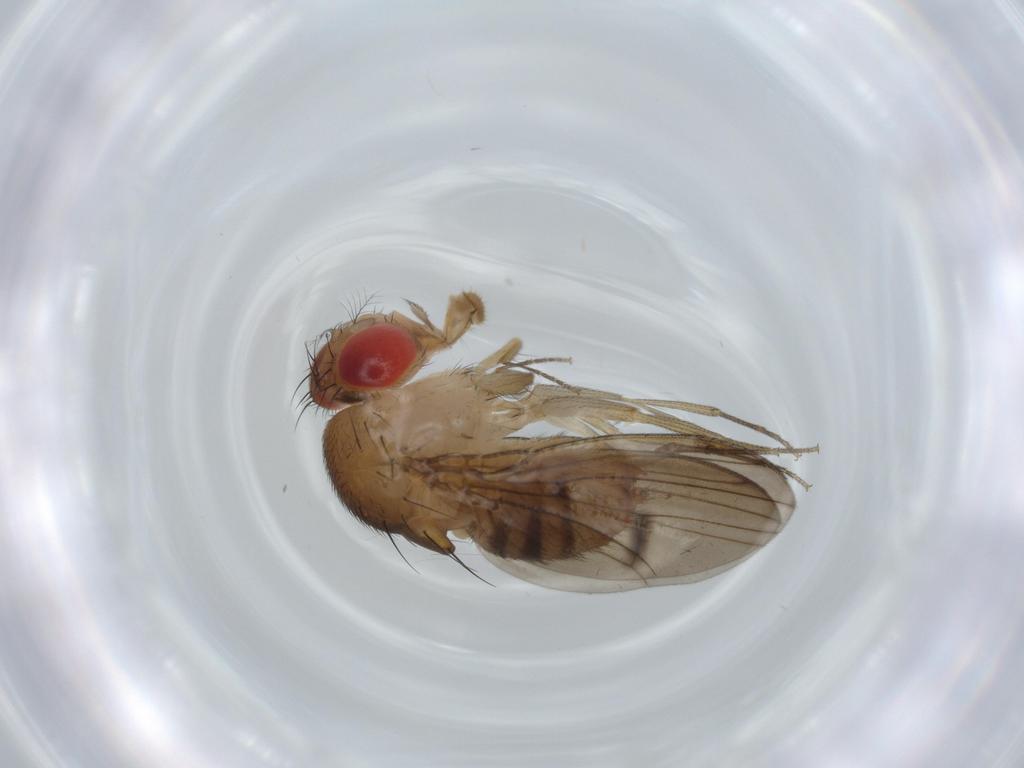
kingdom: Animalia
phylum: Arthropoda
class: Insecta
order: Diptera
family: Drosophilidae
